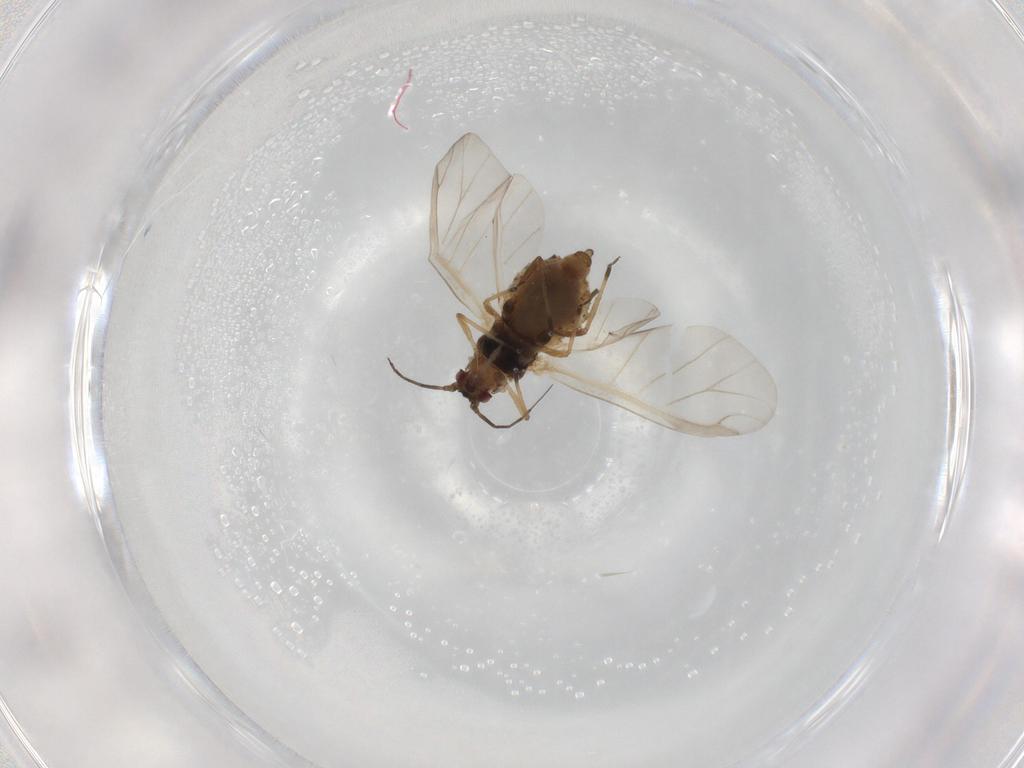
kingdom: Animalia
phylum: Arthropoda
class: Insecta
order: Hemiptera
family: Aphididae
